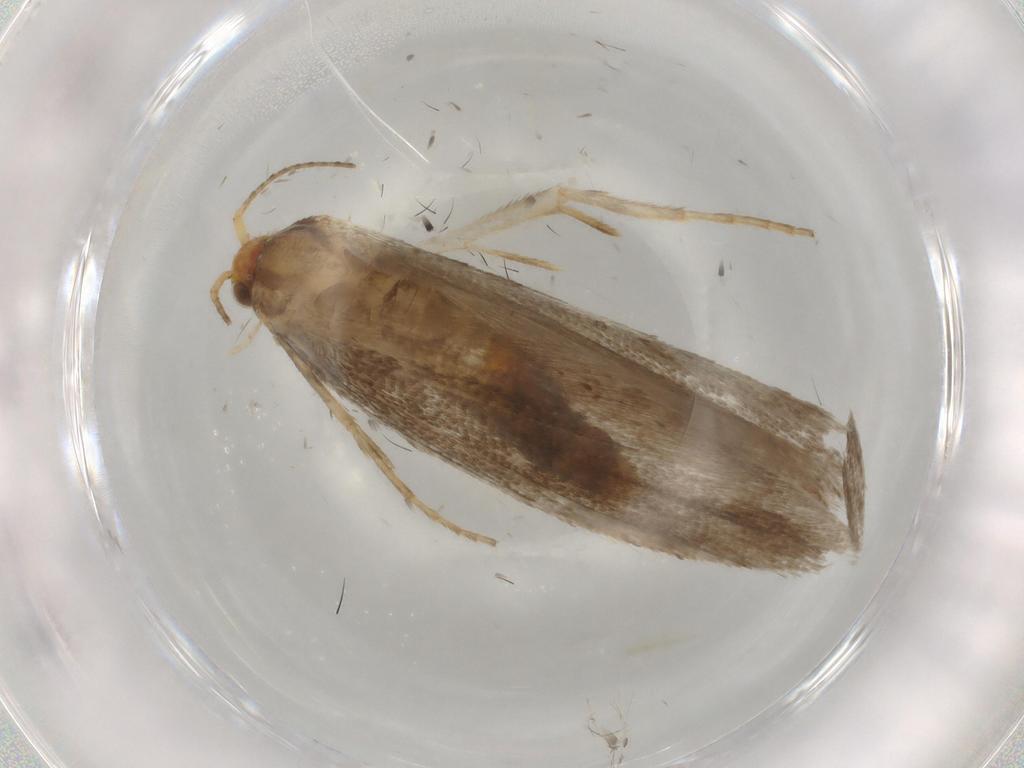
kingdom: Animalia
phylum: Arthropoda
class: Insecta
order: Lepidoptera
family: Argyresthiidae
